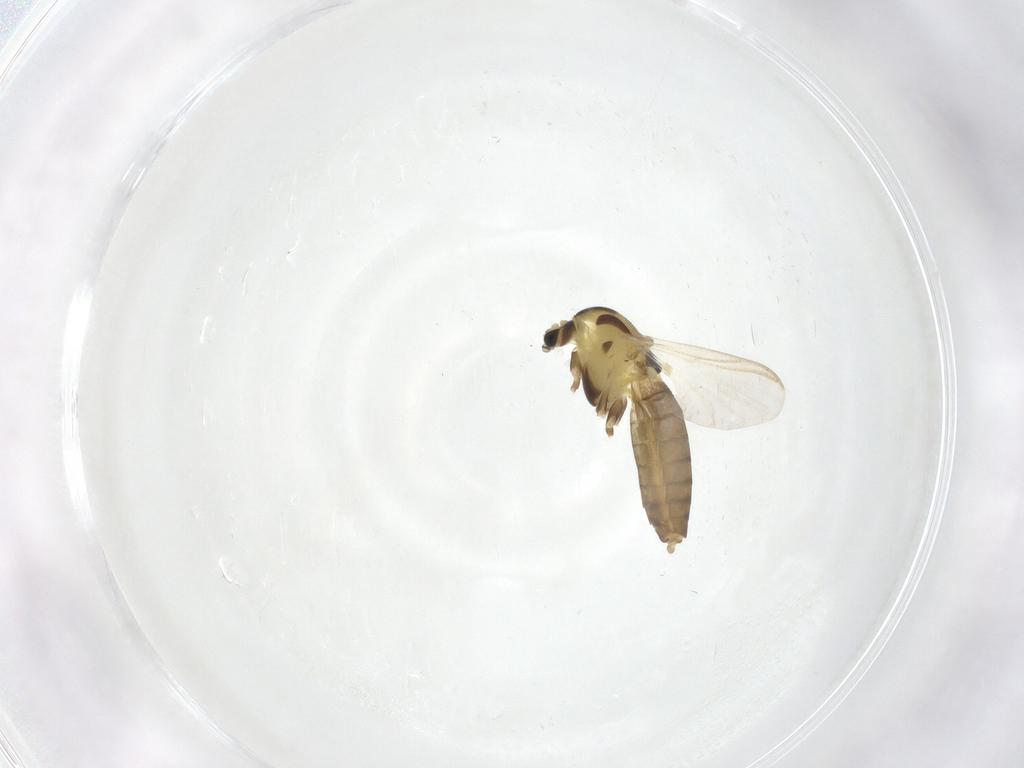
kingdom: Animalia
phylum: Arthropoda
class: Insecta
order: Diptera
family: Chironomidae
